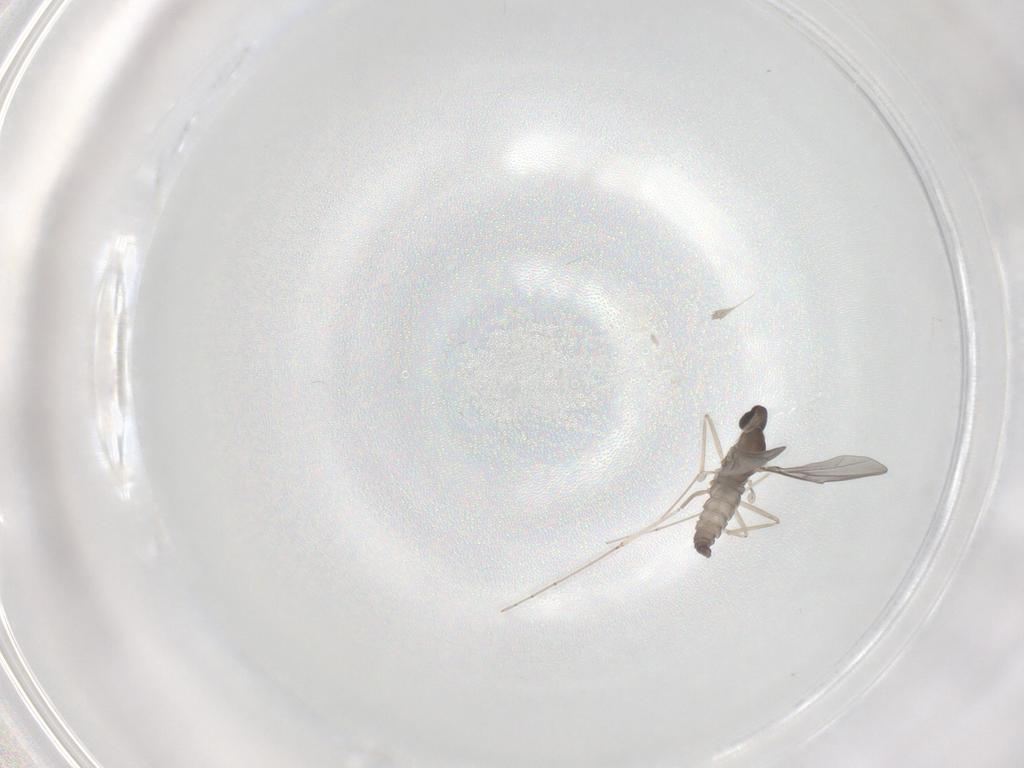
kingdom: Animalia
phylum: Arthropoda
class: Insecta
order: Diptera
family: Cecidomyiidae
